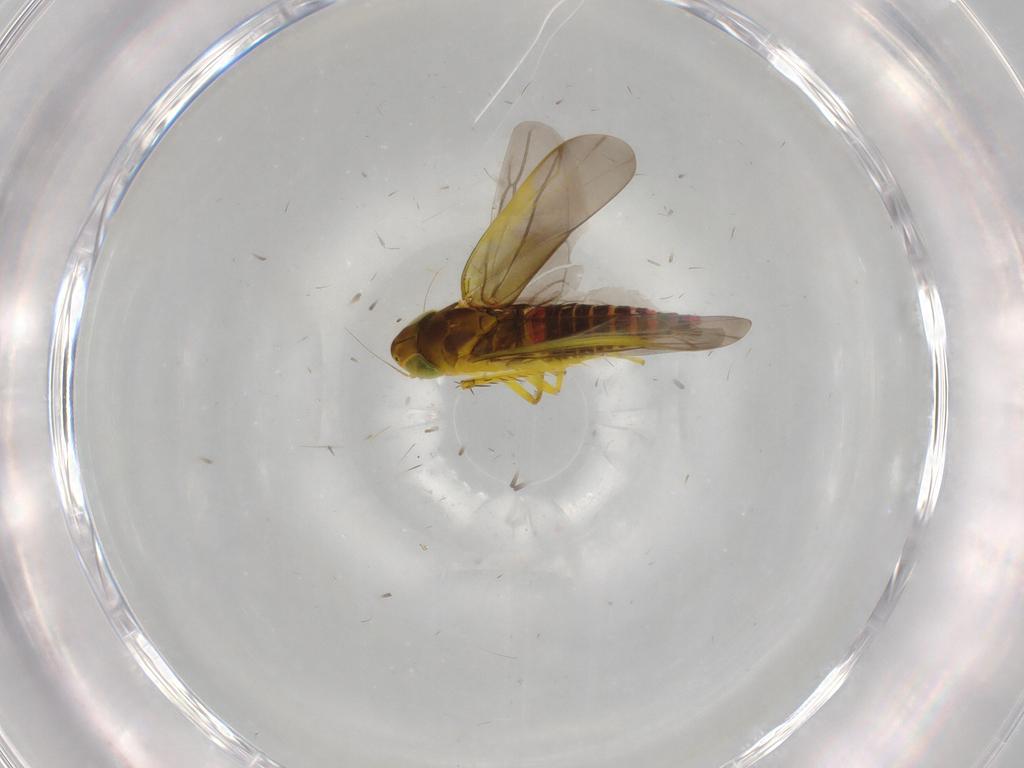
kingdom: Animalia
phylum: Arthropoda
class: Insecta
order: Hemiptera
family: Cicadellidae
